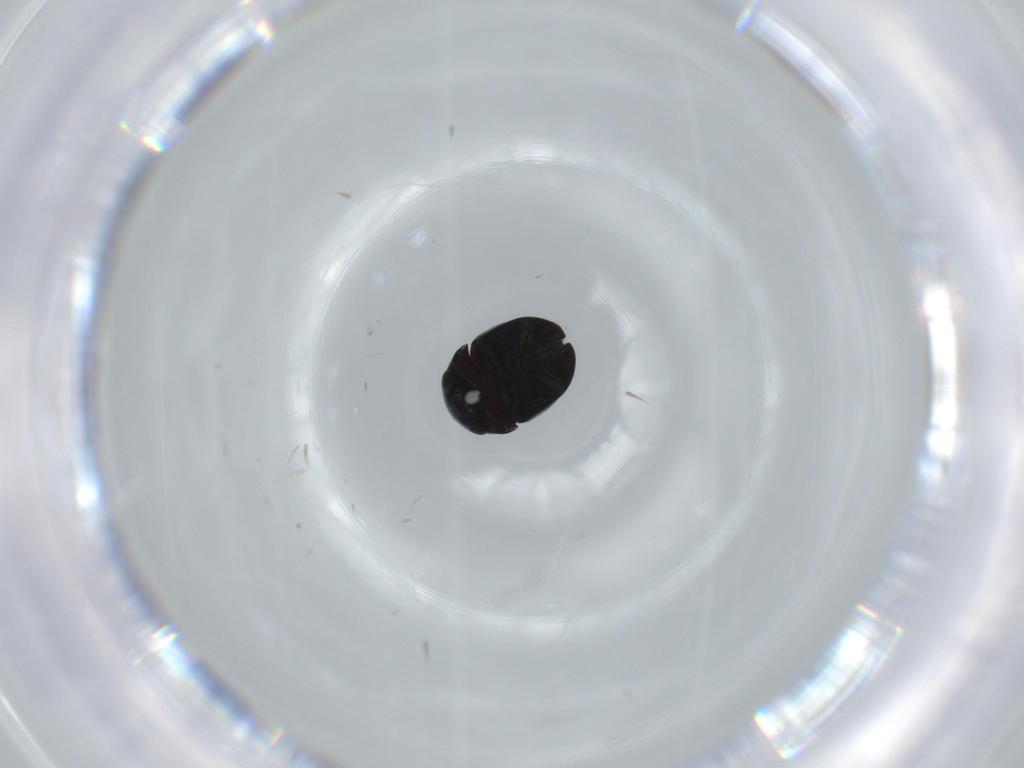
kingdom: Animalia
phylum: Arthropoda
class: Insecta
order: Coleoptera
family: Cybocephalidae
